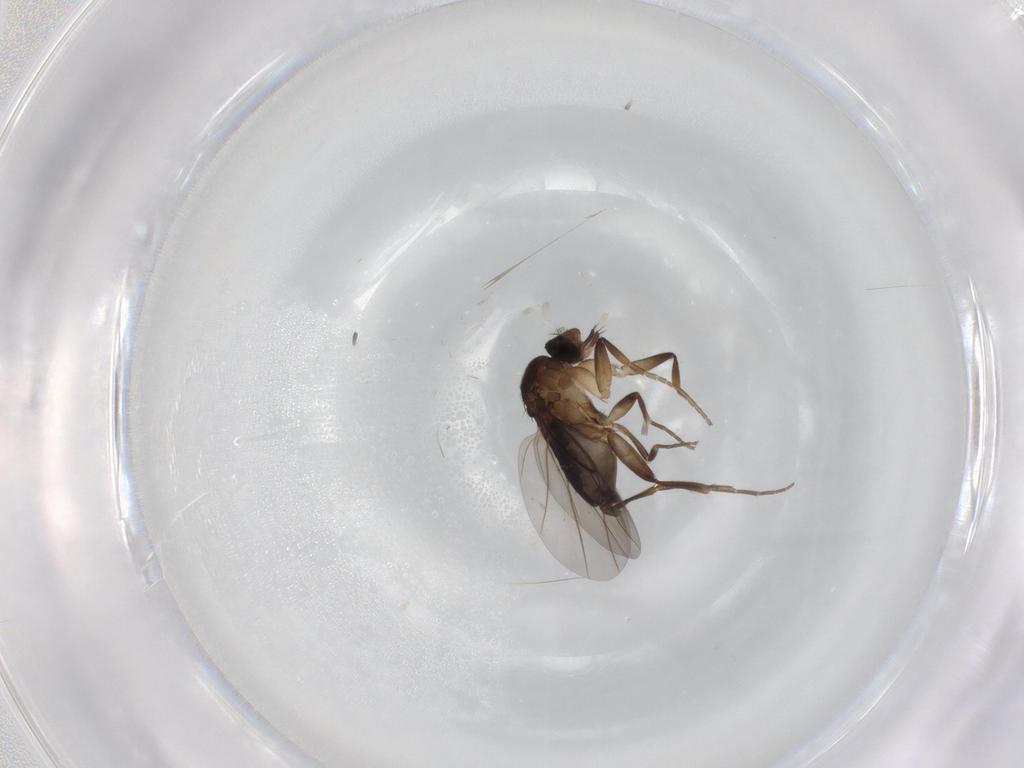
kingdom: Animalia
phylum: Arthropoda
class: Insecta
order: Diptera
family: Phoridae
